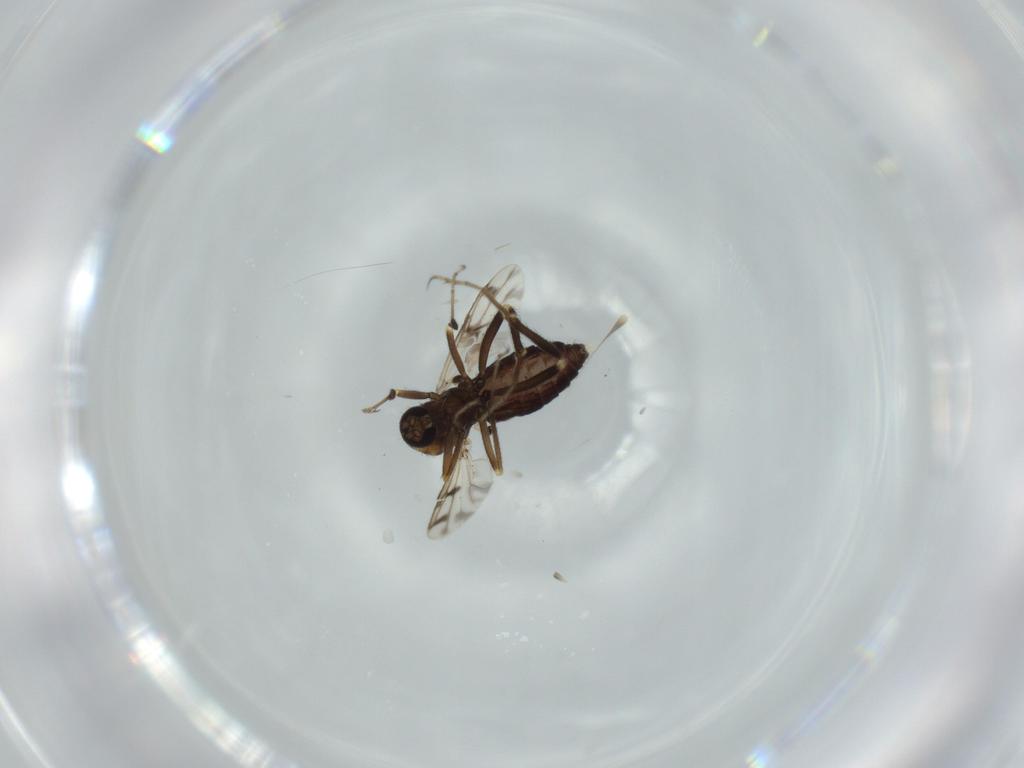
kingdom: Animalia
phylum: Arthropoda
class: Insecta
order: Diptera
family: Ceratopogonidae
